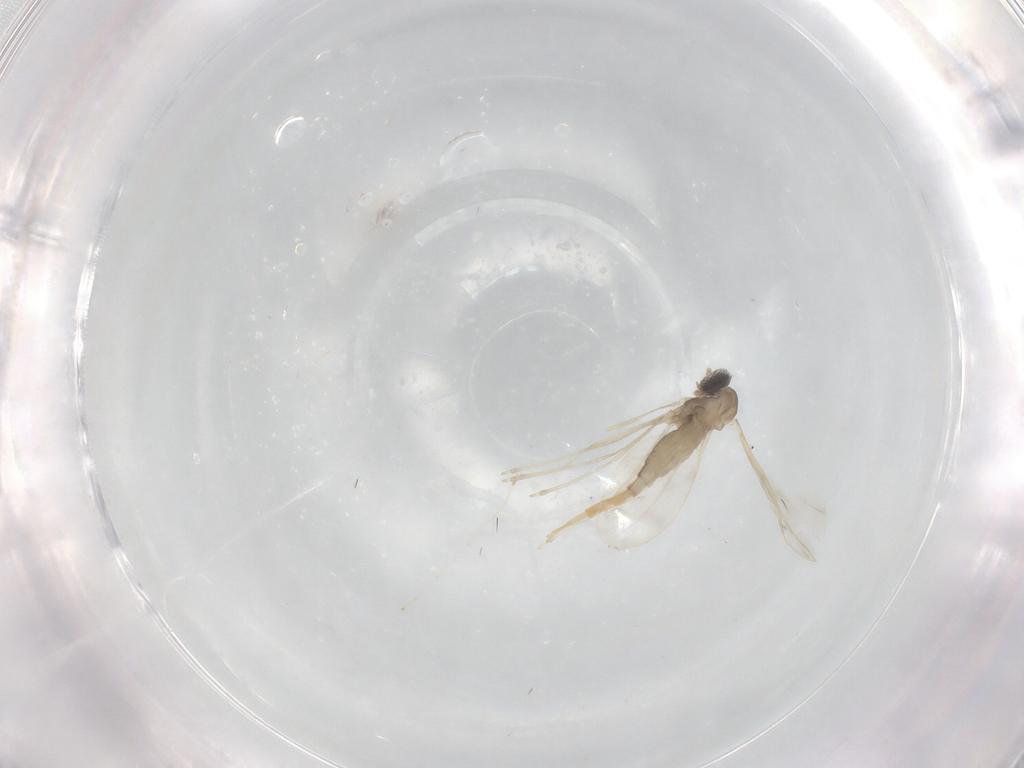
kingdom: Animalia
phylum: Arthropoda
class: Insecta
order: Diptera
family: Cecidomyiidae
